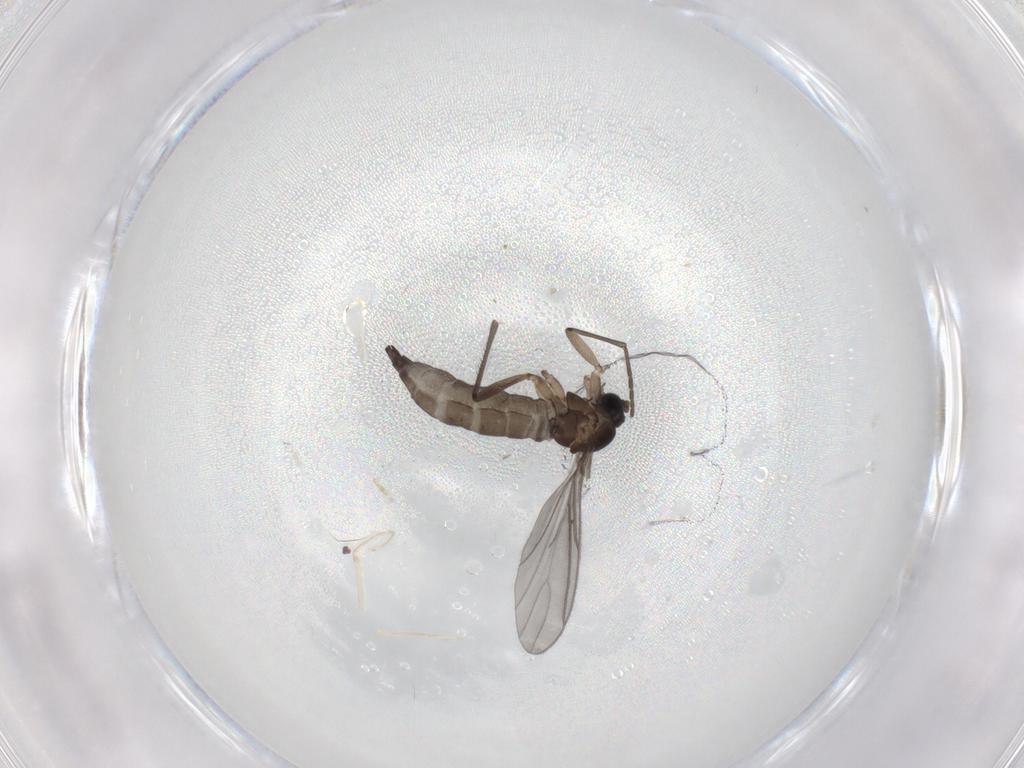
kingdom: Animalia
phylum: Arthropoda
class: Insecta
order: Diptera
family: Sciaridae
